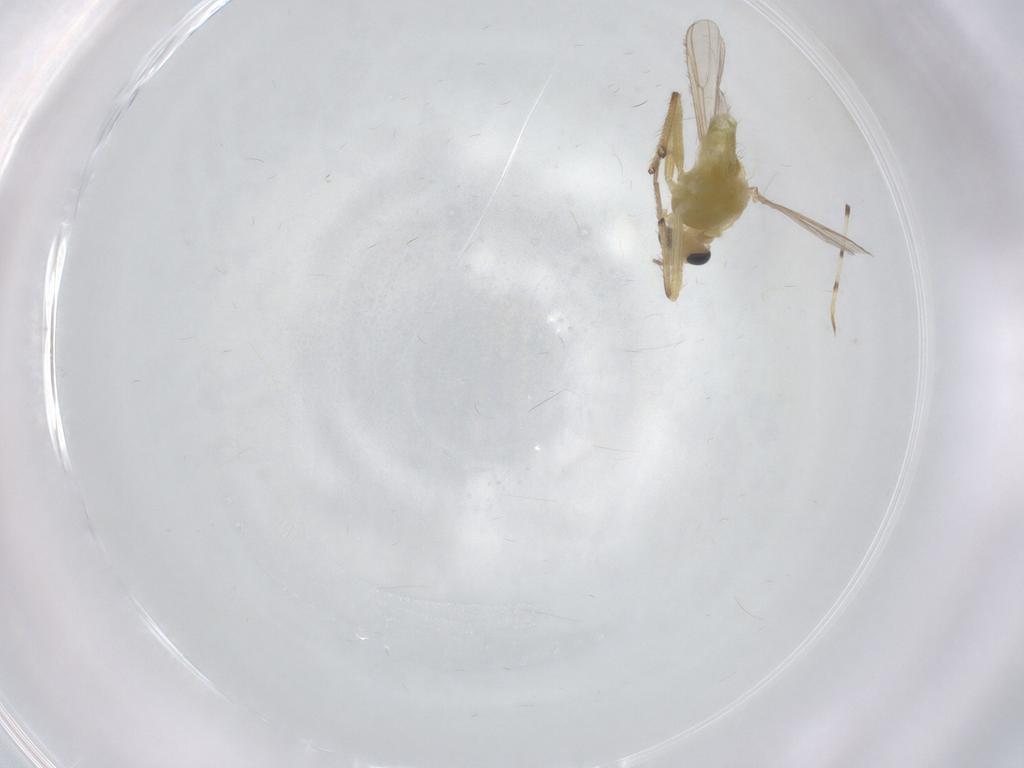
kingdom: Animalia
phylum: Arthropoda
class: Insecta
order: Diptera
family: Chironomidae
